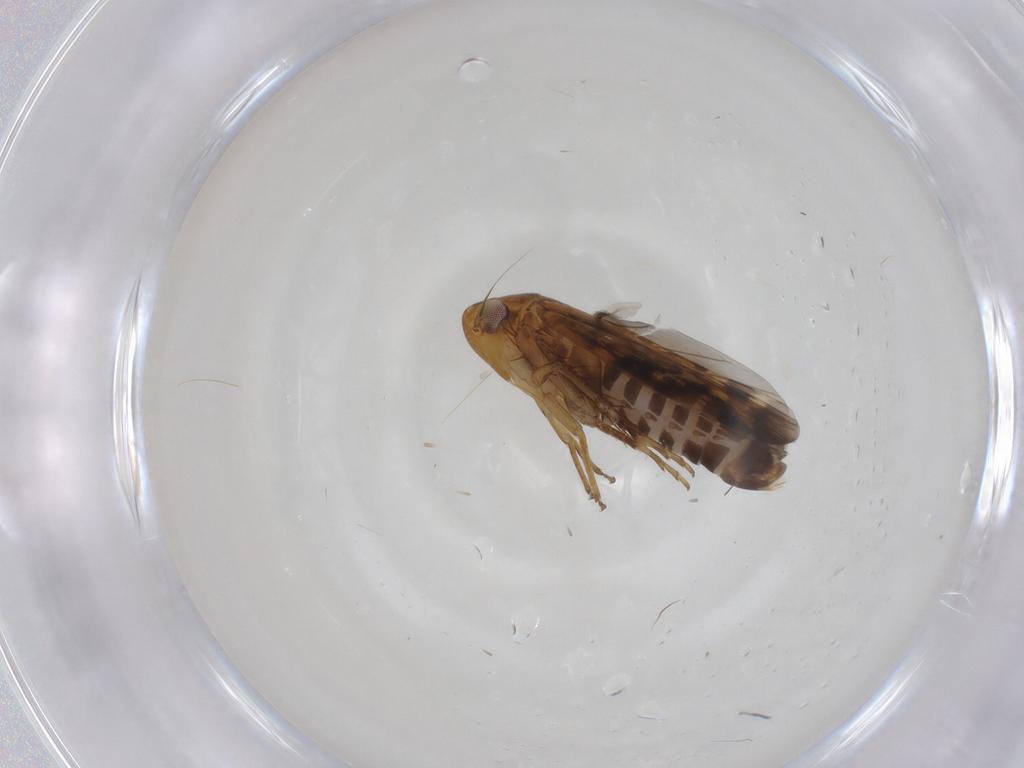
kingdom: Animalia
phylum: Arthropoda
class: Insecta
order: Hemiptera
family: Cicadellidae
